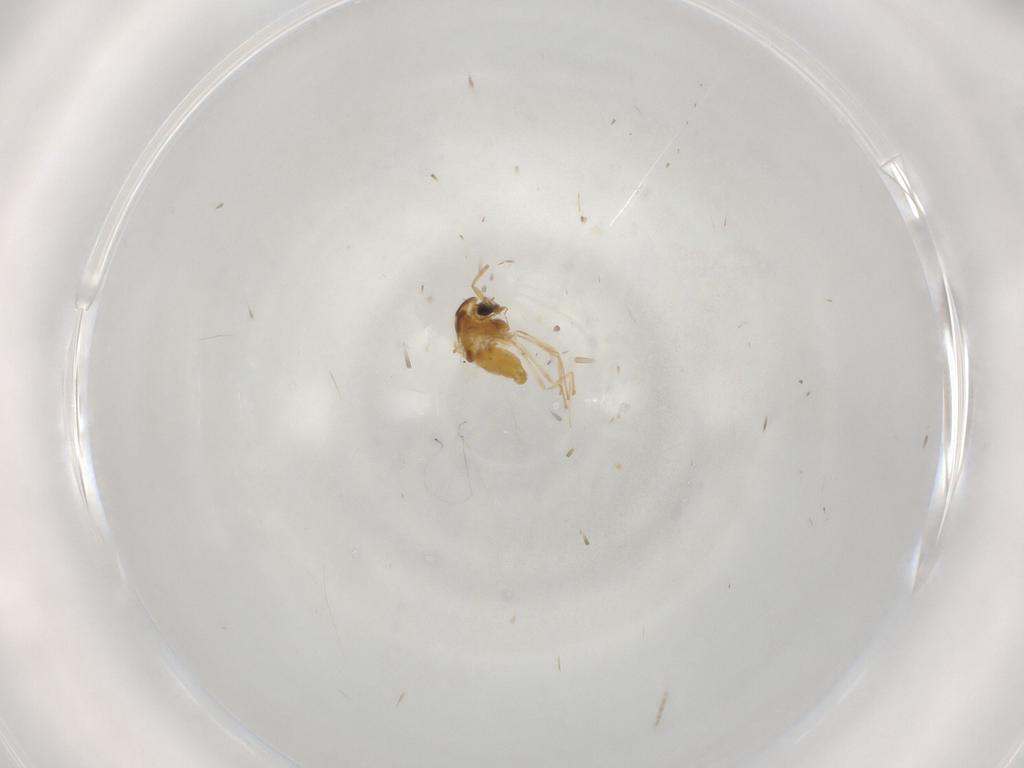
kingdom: Animalia
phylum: Arthropoda
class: Insecta
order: Diptera
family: Chironomidae
